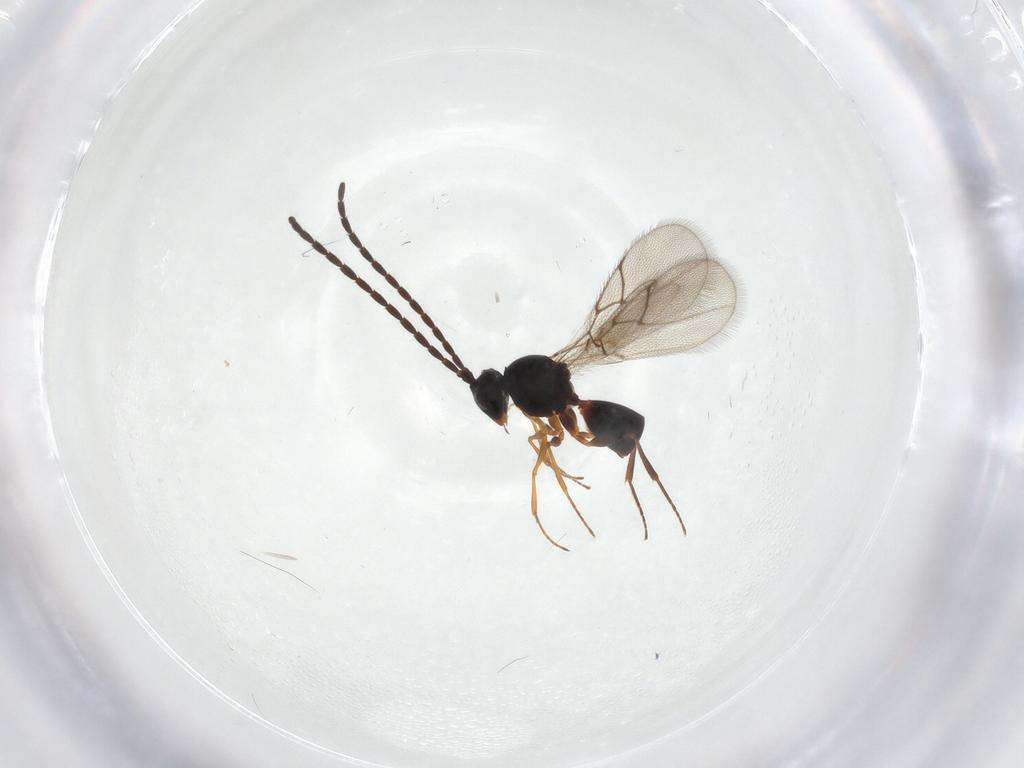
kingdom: Animalia
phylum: Arthropoda
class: Insecta
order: Hymenoptera
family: Figitidae
